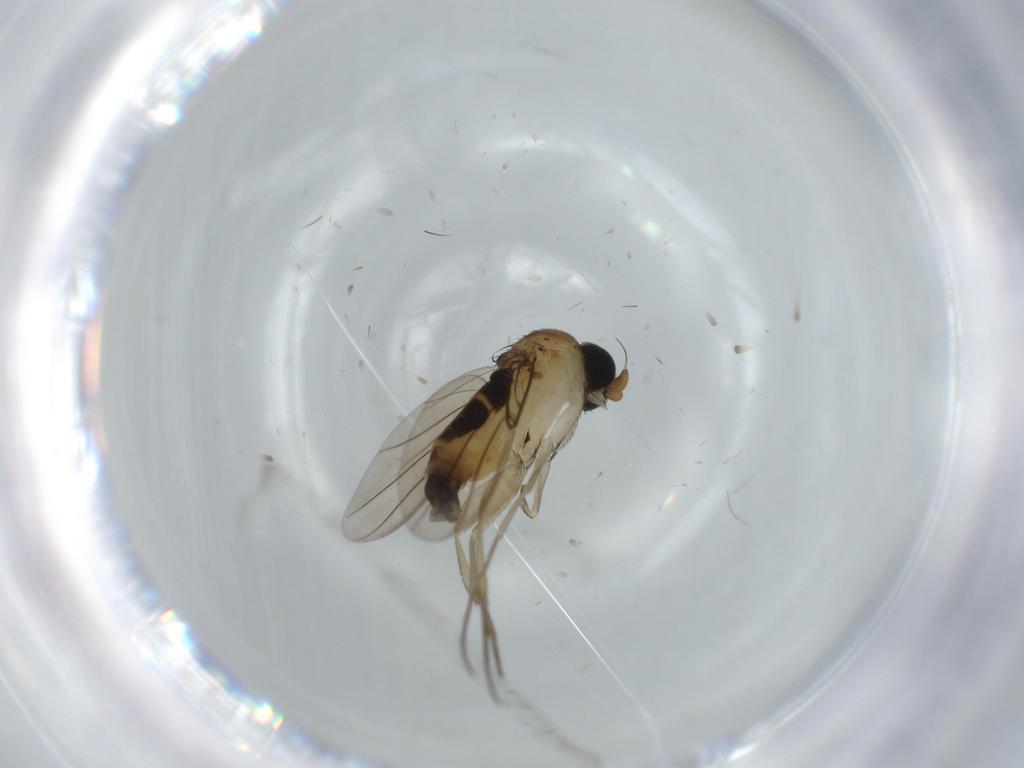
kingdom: Animalia
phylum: Arthropoda
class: Insecta
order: Diptera
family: Phoridae
